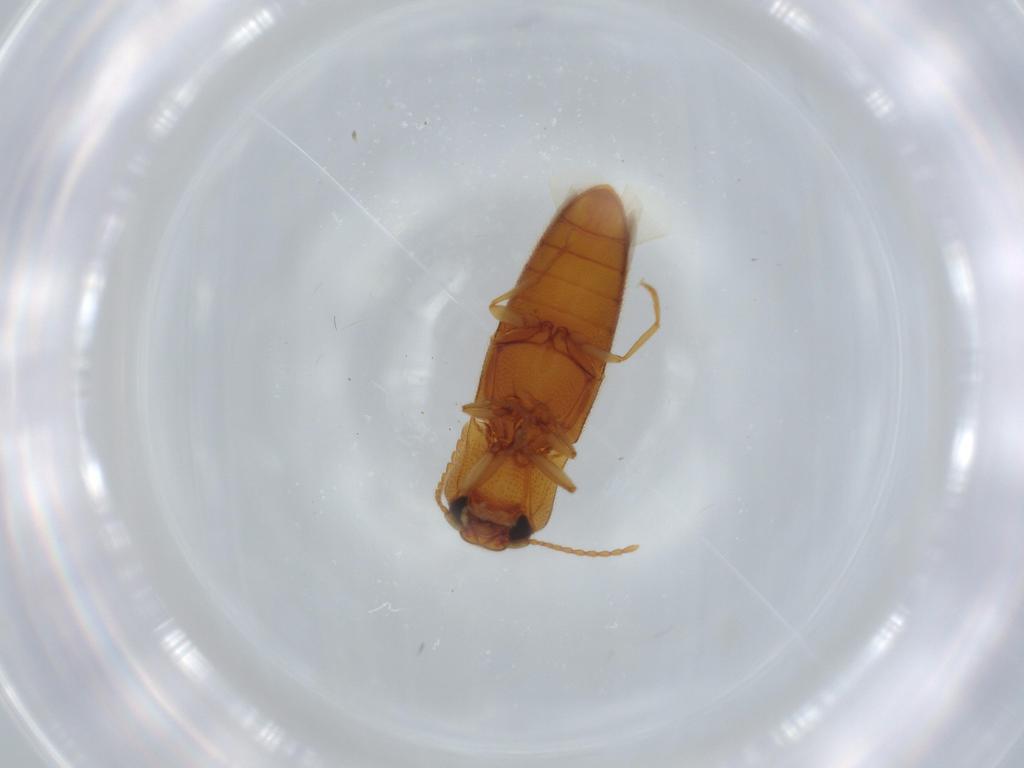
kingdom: Animalia
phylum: Arthropoda
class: Insecta
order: Coleoptera
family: Elateridae
